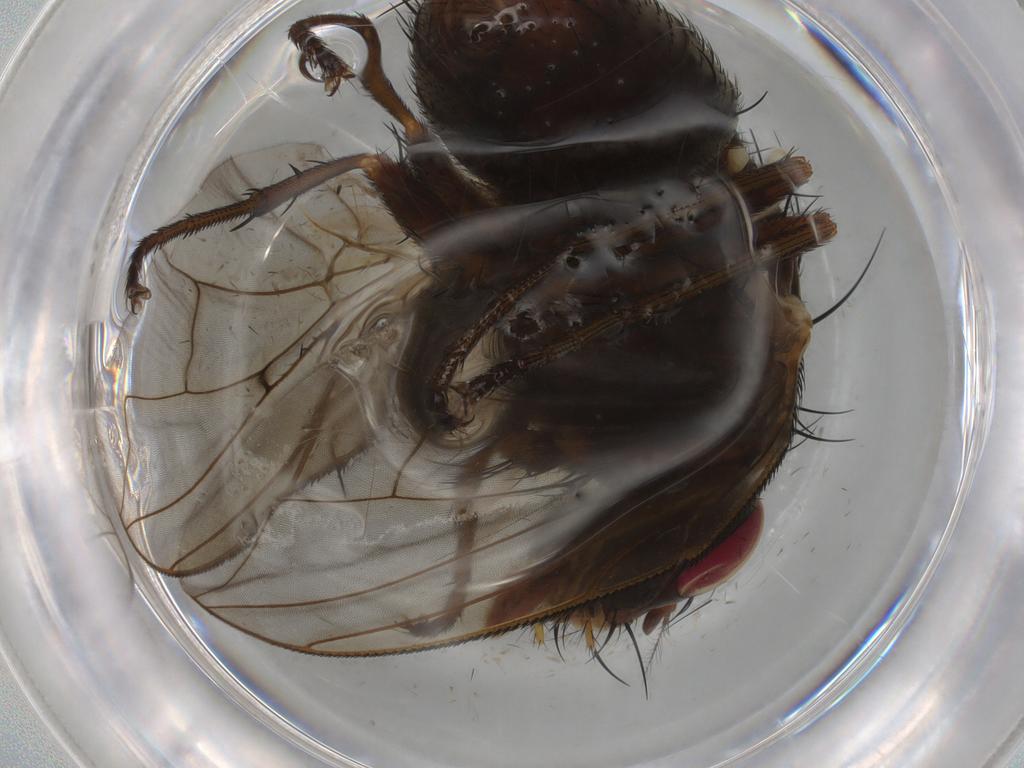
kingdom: Animalia
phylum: Arthropoda
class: Insecta
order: Diptera
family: Tachinidae
